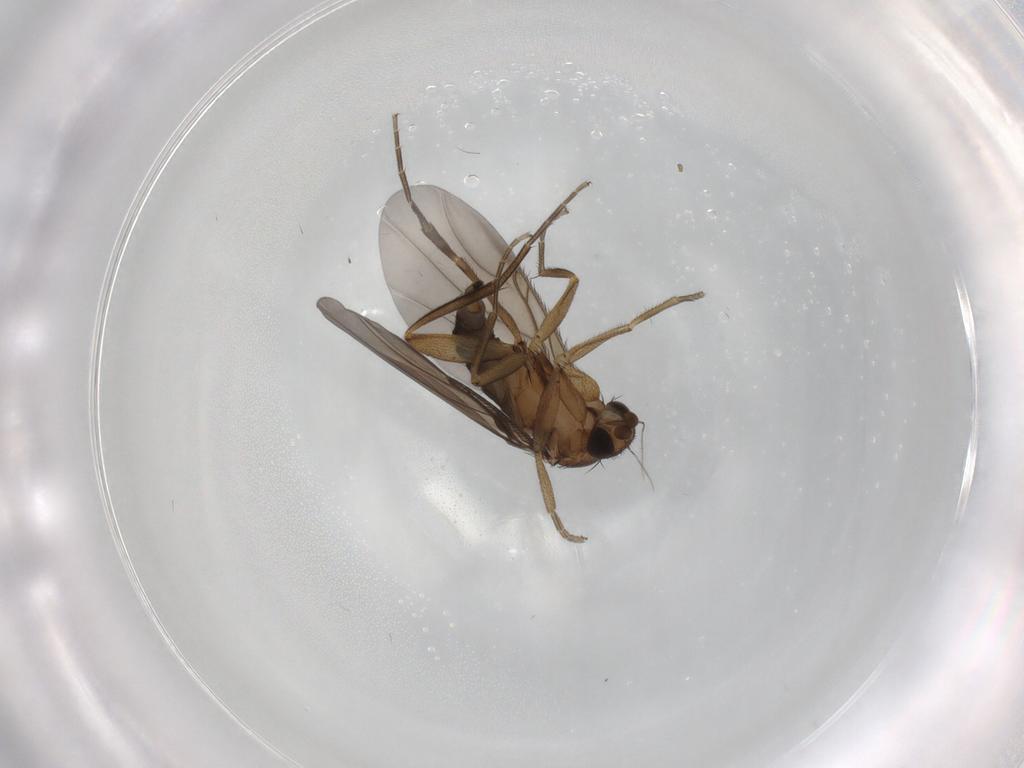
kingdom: Animalia
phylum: Arthropoda
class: Insecta
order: Diptera
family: Phoridae
